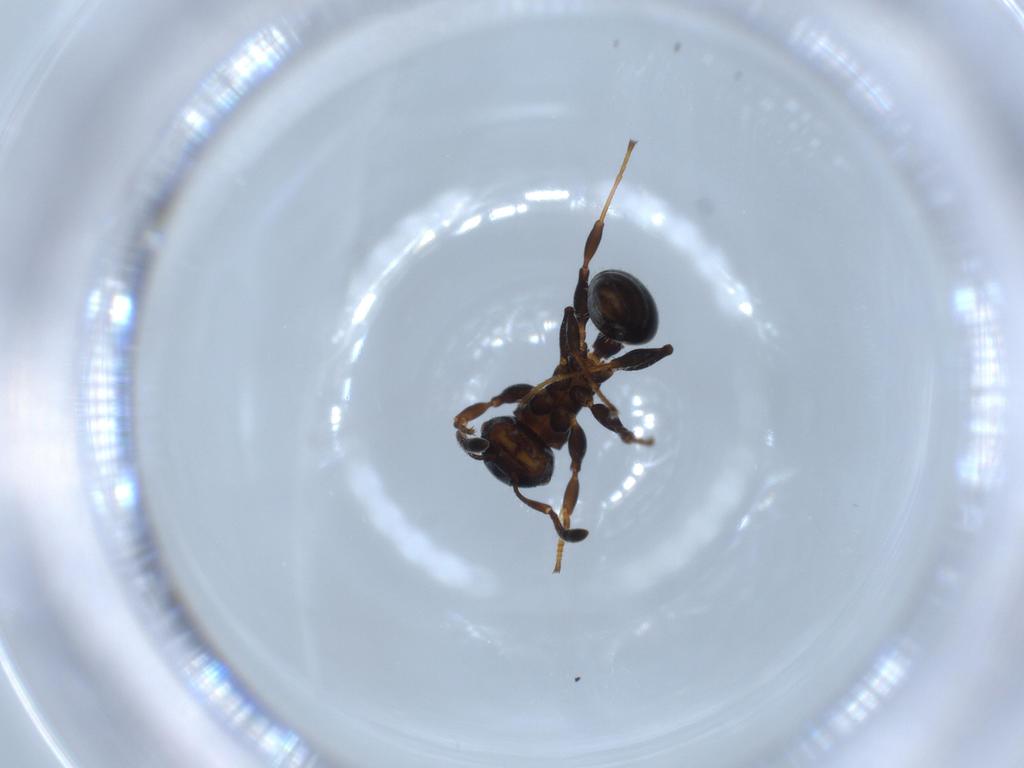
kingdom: Animalia
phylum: Arthropoda
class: Insecta
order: Hymenoptera
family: Formicidae
